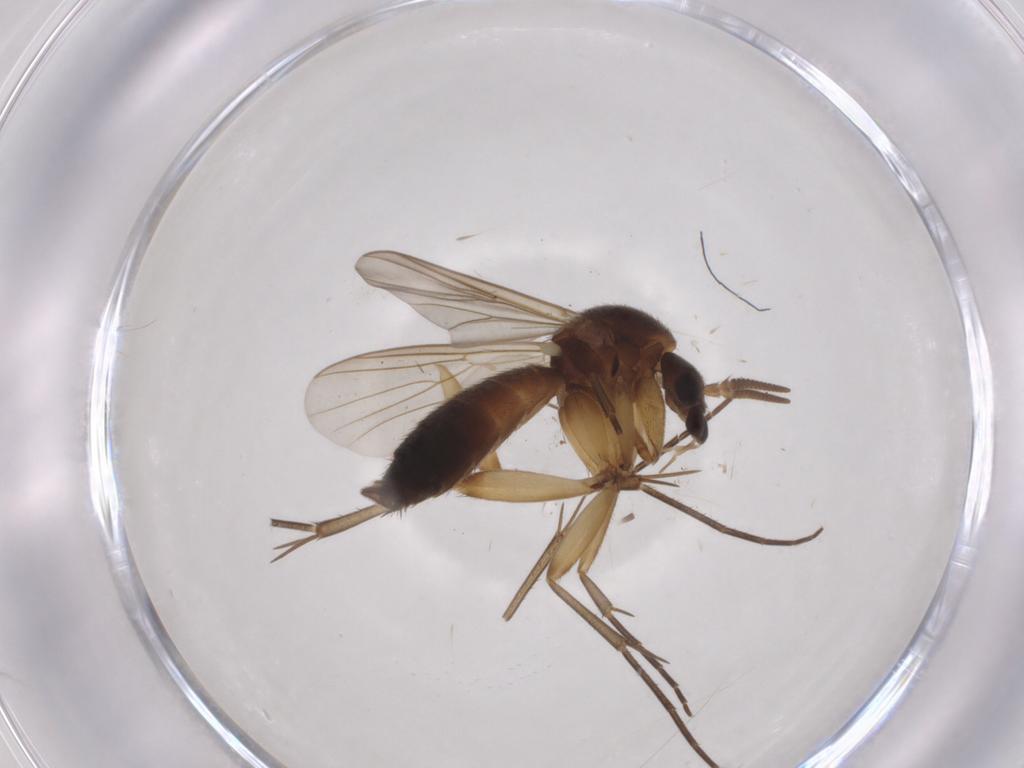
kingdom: Animalia
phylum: Arthropoda
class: Insecta
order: Diptera
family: Mycetophilidae
